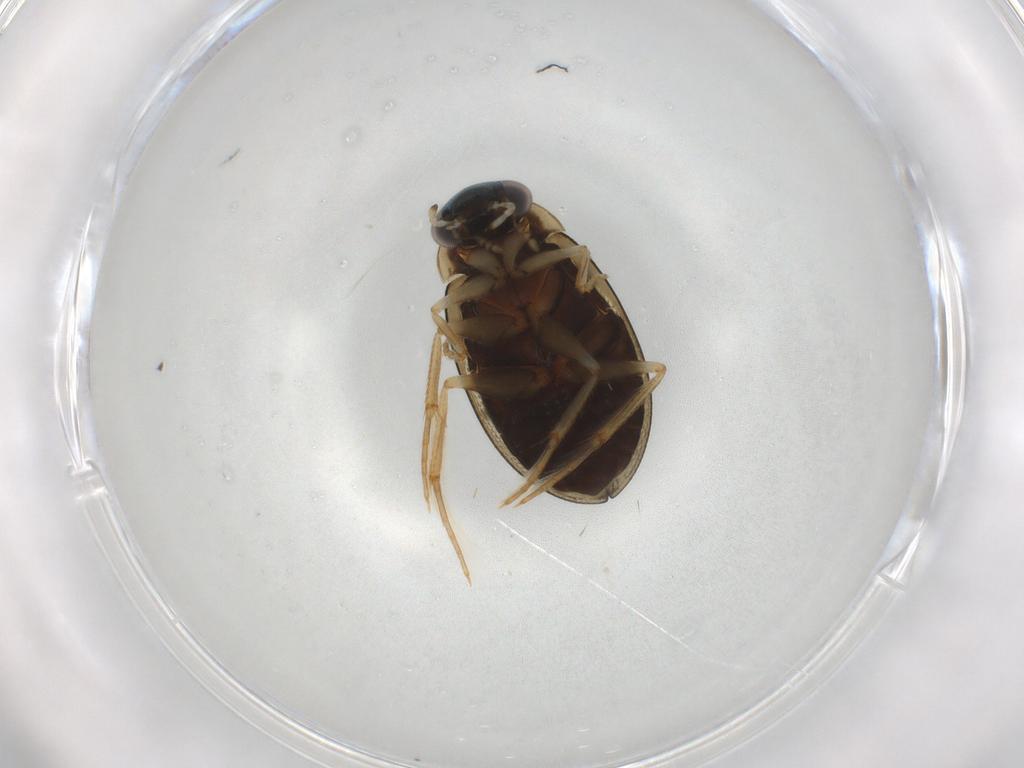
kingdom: Animalia
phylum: Arthropoda
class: Insecta
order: Coleoptera
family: Hydrophilidae
